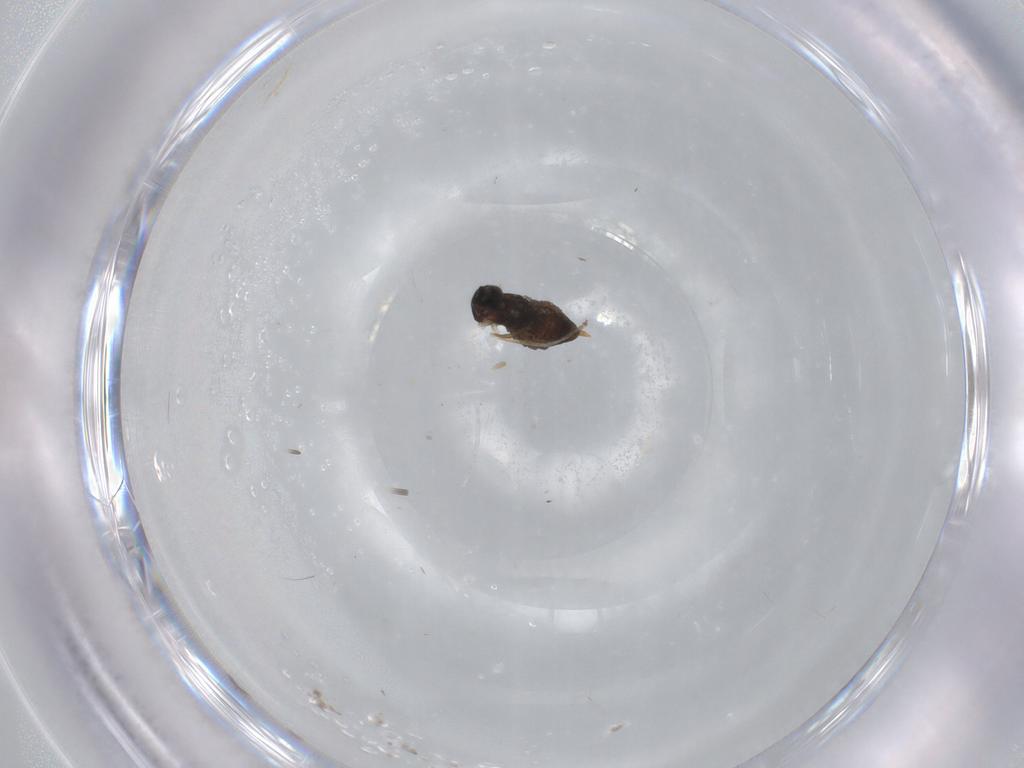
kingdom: Animalia
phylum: Arthropoda
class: Insecta
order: Diptera
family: Cecidomyiidae
